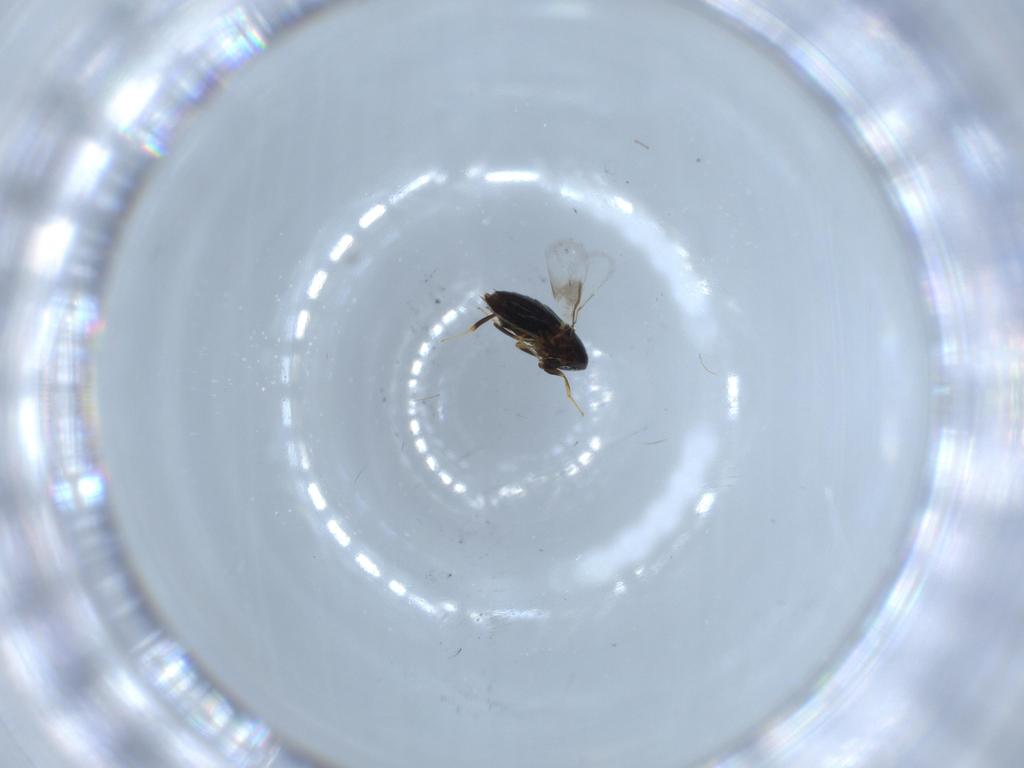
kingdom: Animalia
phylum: Arthropoda
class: Insecta
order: Hymenoptera
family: Signiphoridae
